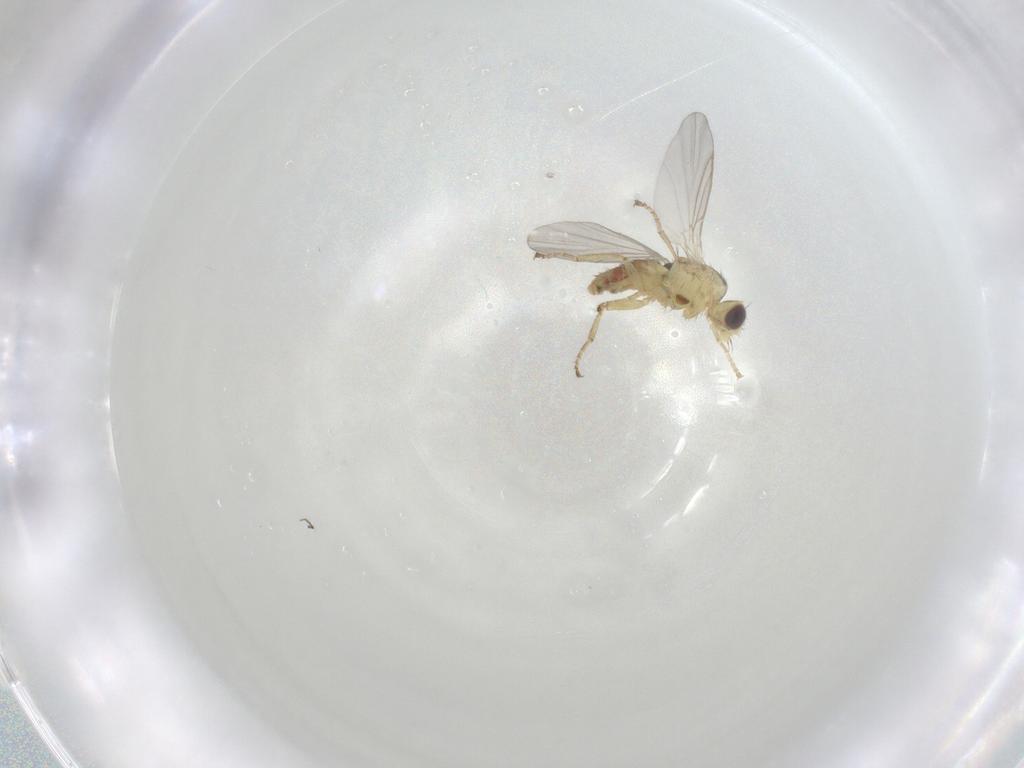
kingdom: Animalia
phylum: Arthropoda
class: Insecta
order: Diptera
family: Agromyzidae
